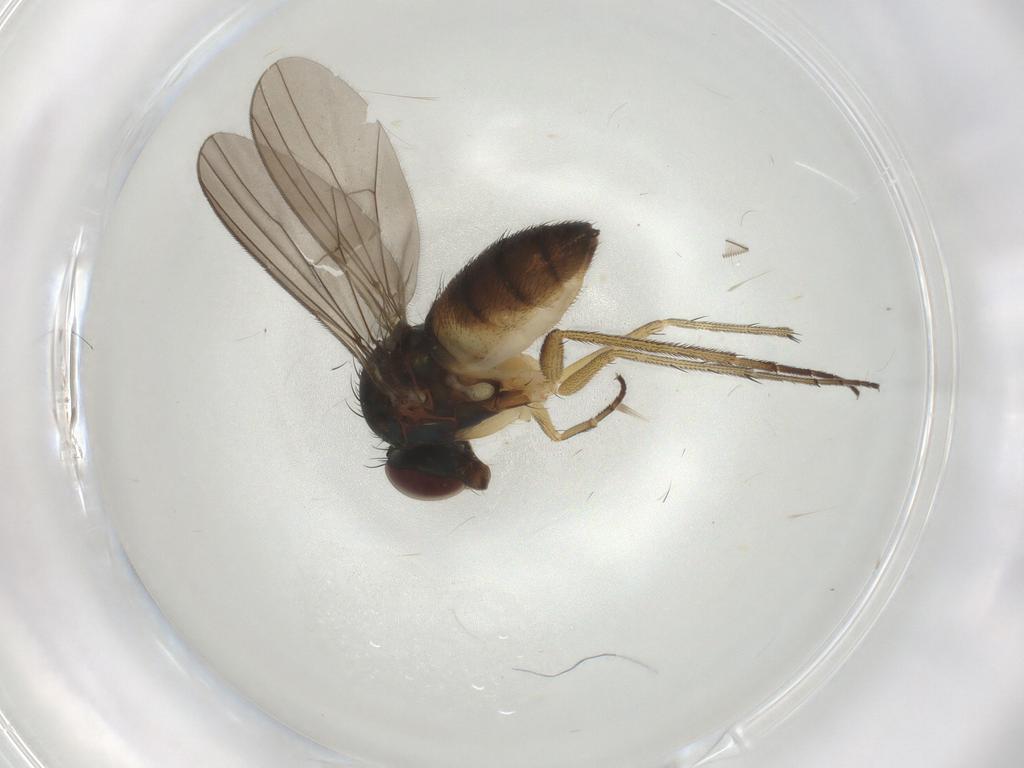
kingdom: Animalia
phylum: Arthropoda
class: Insecta
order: Diptera
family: Dolichopodidae
